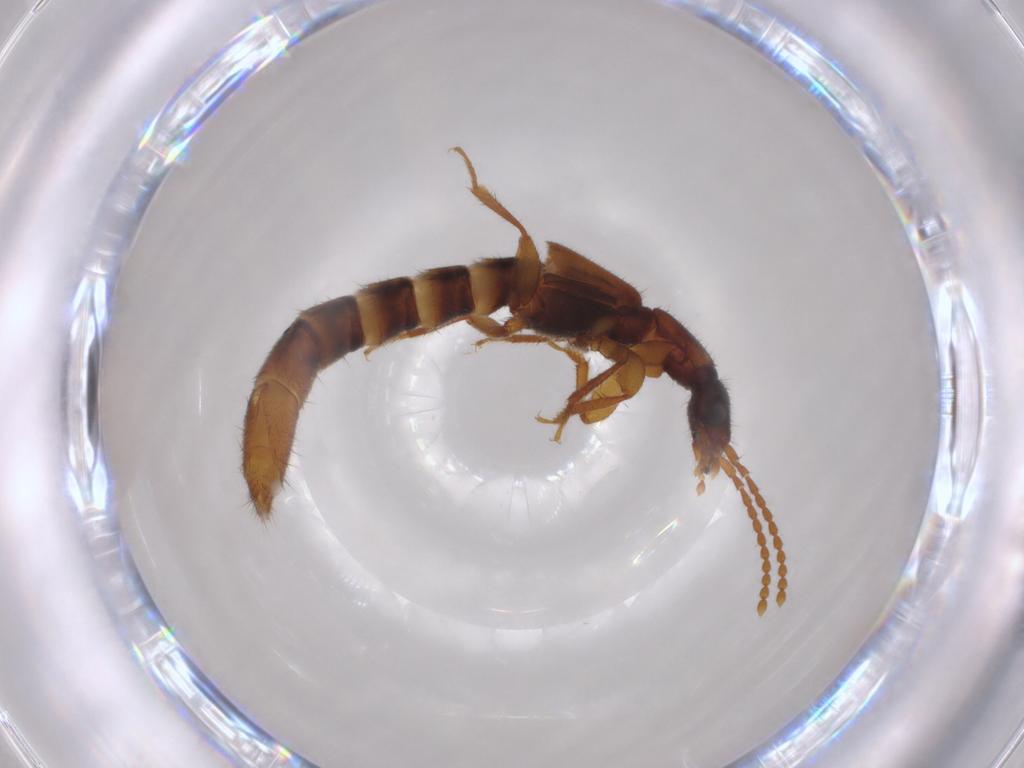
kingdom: Animalia
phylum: Arthropoda
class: Insecta
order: Coleoptera
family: Staphylinidae
